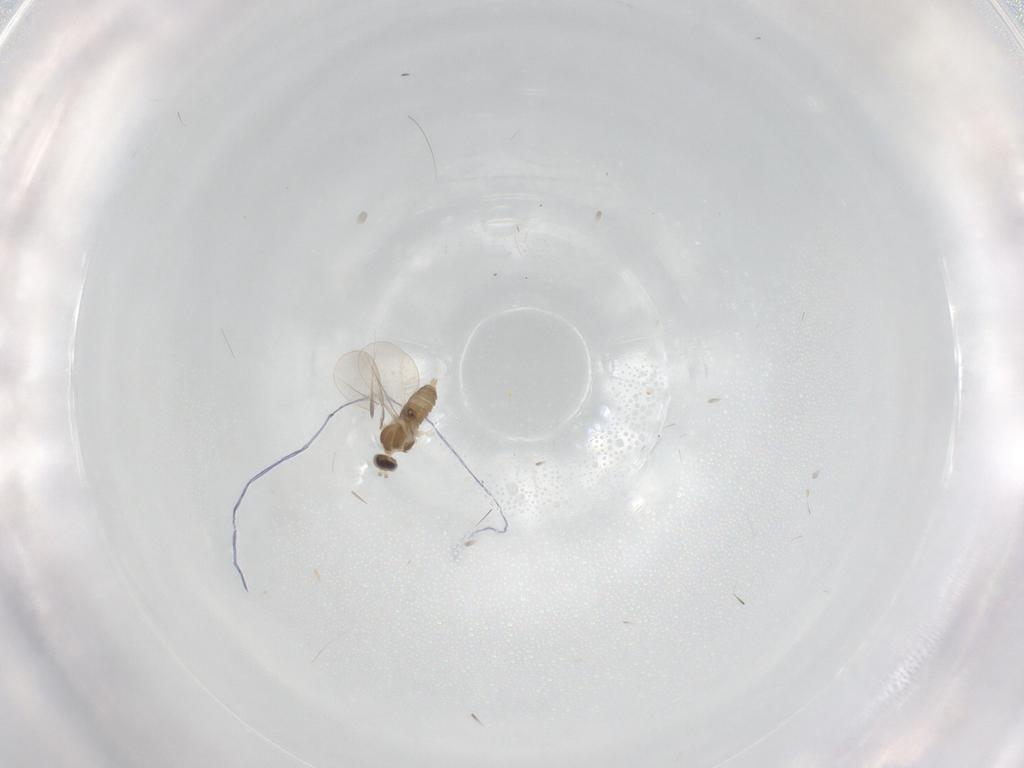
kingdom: Animalia
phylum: Arthropoda
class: Insecta
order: Diptera
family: Cecidomyiidae
